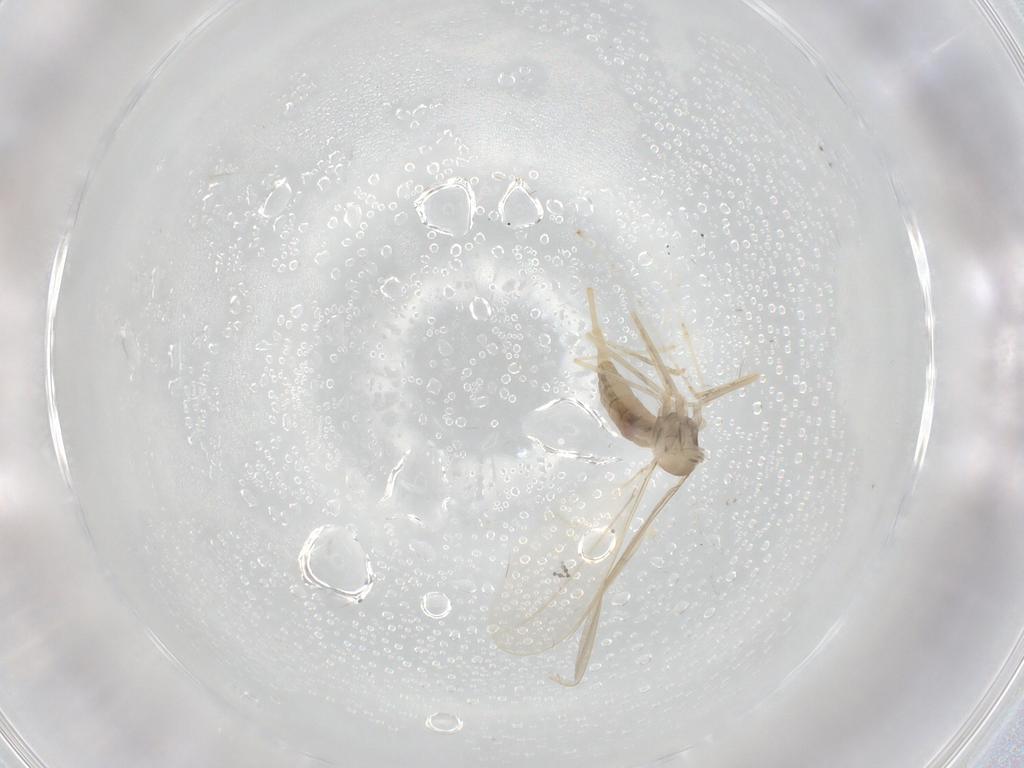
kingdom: Animalia
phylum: Arthropoda
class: Insecta
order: Diptera
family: Cecidomyiidae
